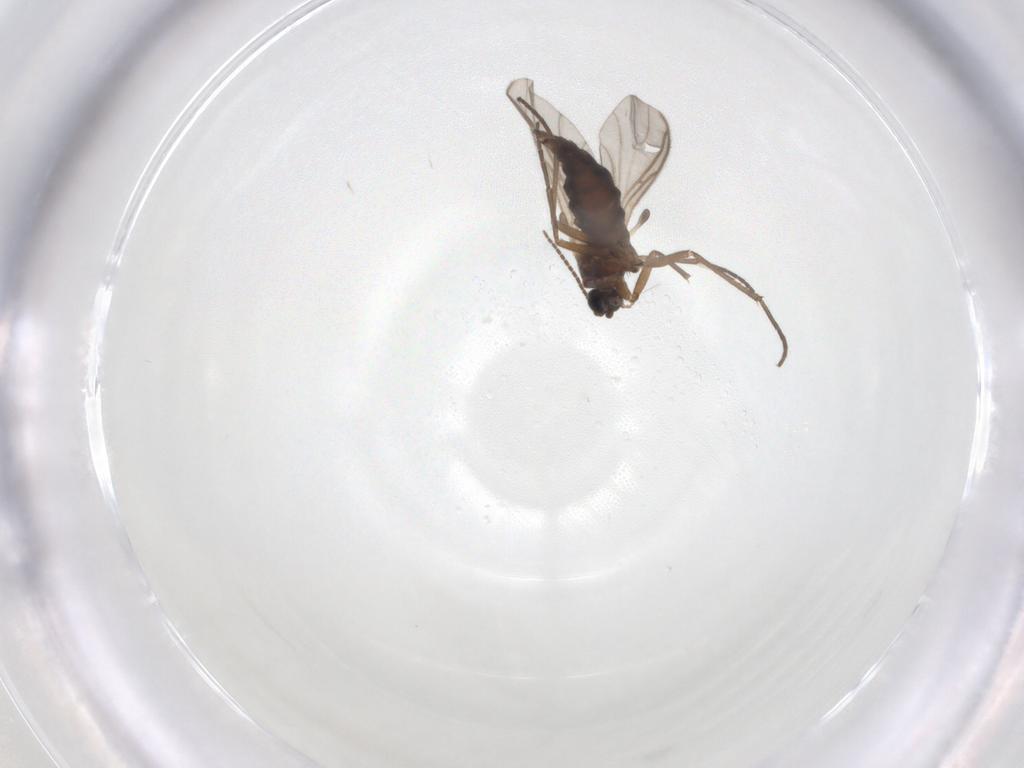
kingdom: Animalia
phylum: Arthropoda
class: Insecta
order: Diptera
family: Sciaridae
